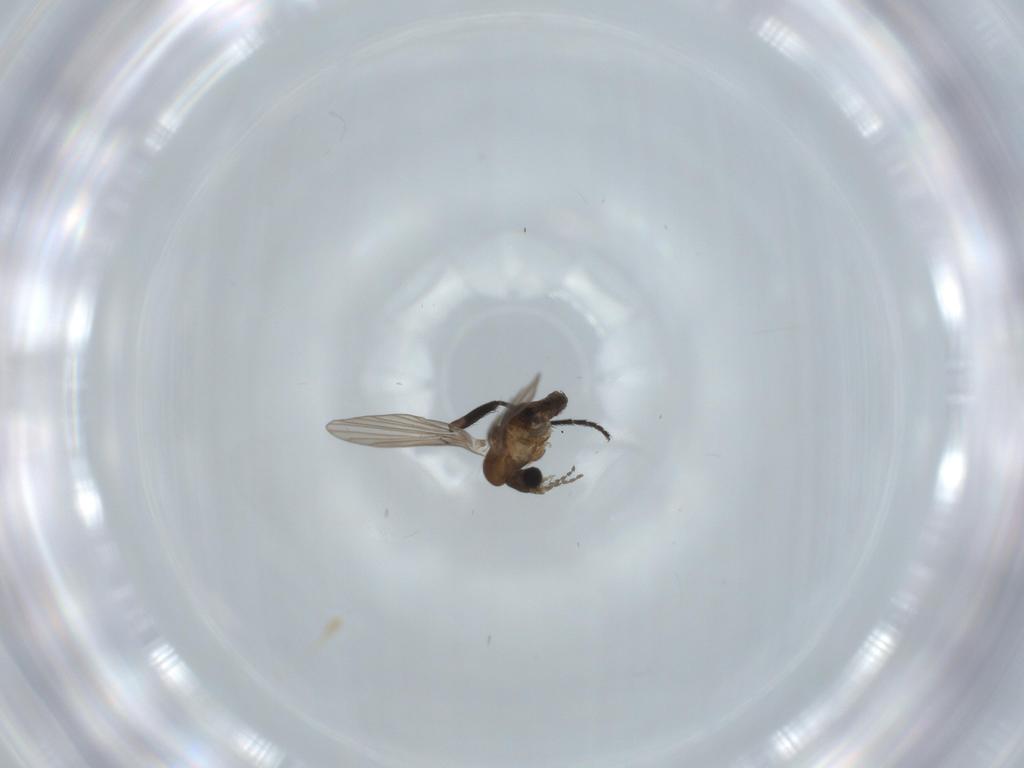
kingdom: Animalia
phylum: Arthropoda
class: Insecta
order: Diptera
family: Psychodidae
